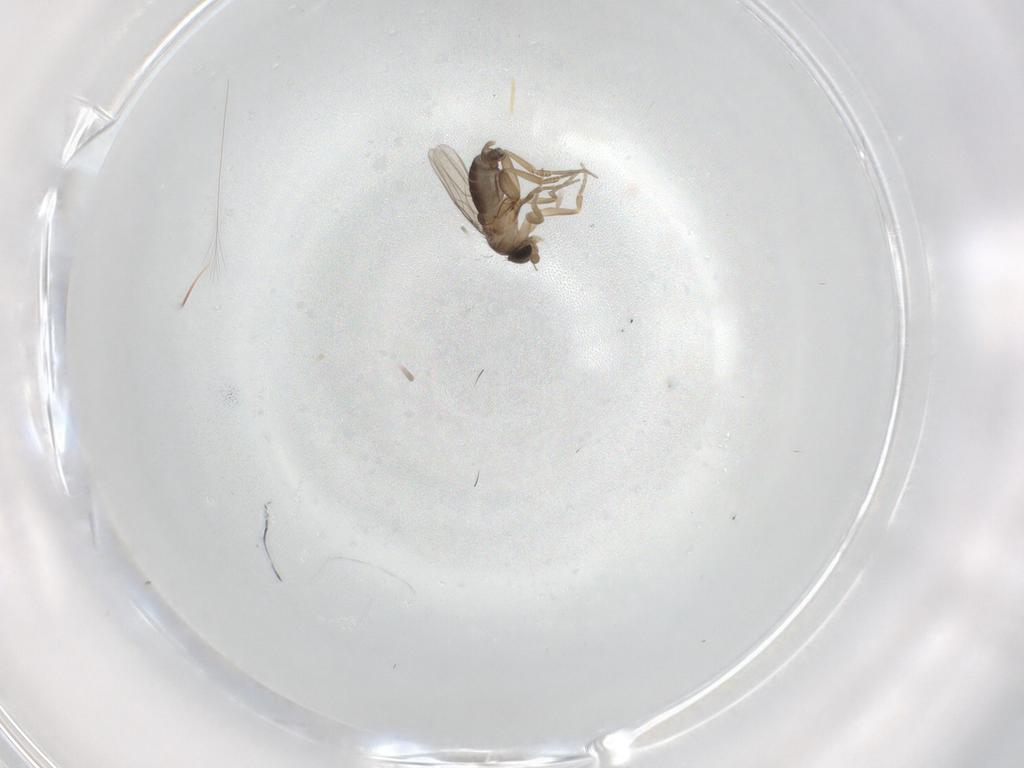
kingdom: Animalia
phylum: Arthropoda
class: Insecta
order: Diptera
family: Phoridae
